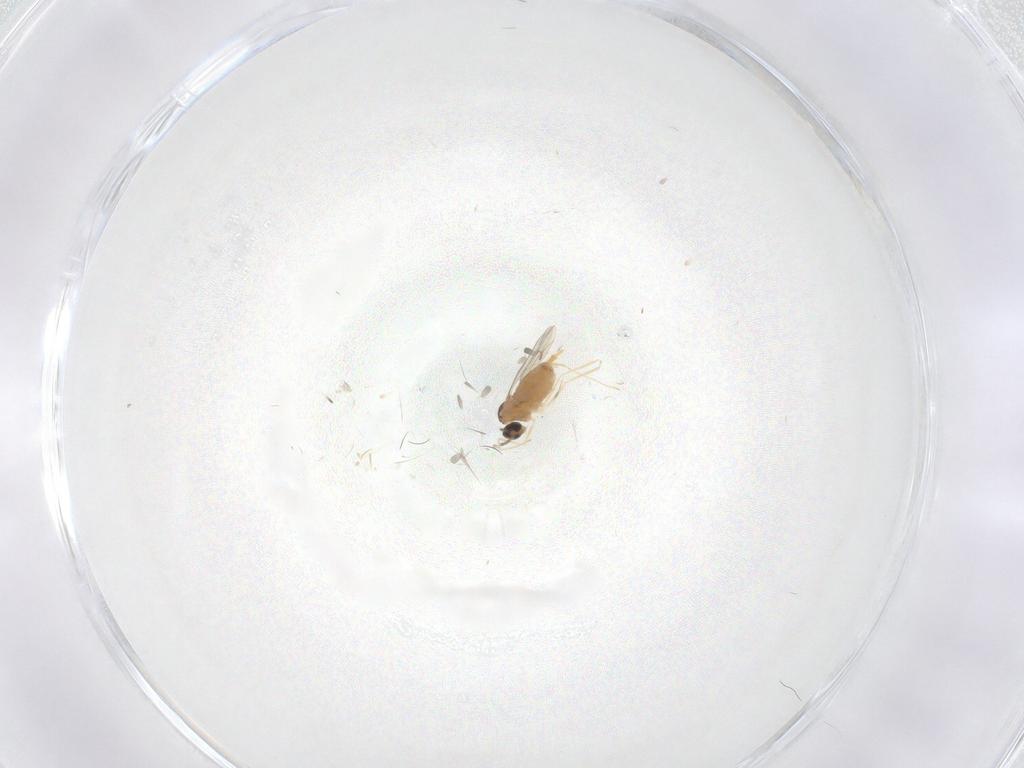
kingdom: Animalia
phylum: Arthropoda
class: Insecta
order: Diptera
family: Cecidomyiidae
